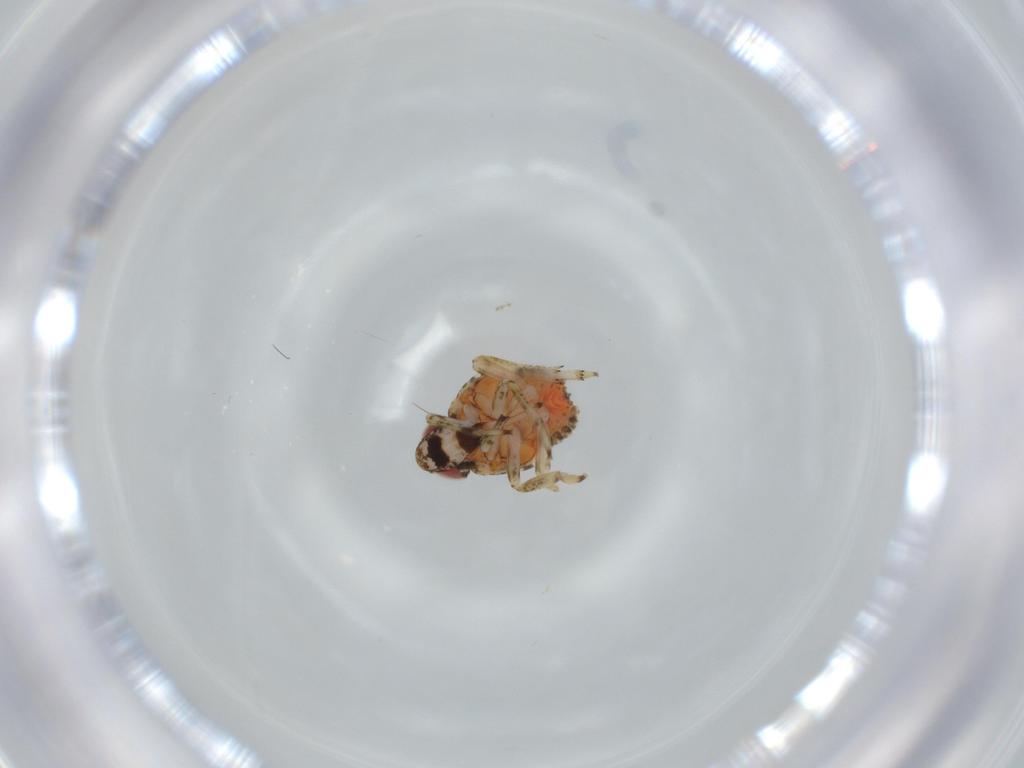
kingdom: Animalia
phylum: Arthropoda
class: Insecta
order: Hemiptera
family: Issidae
